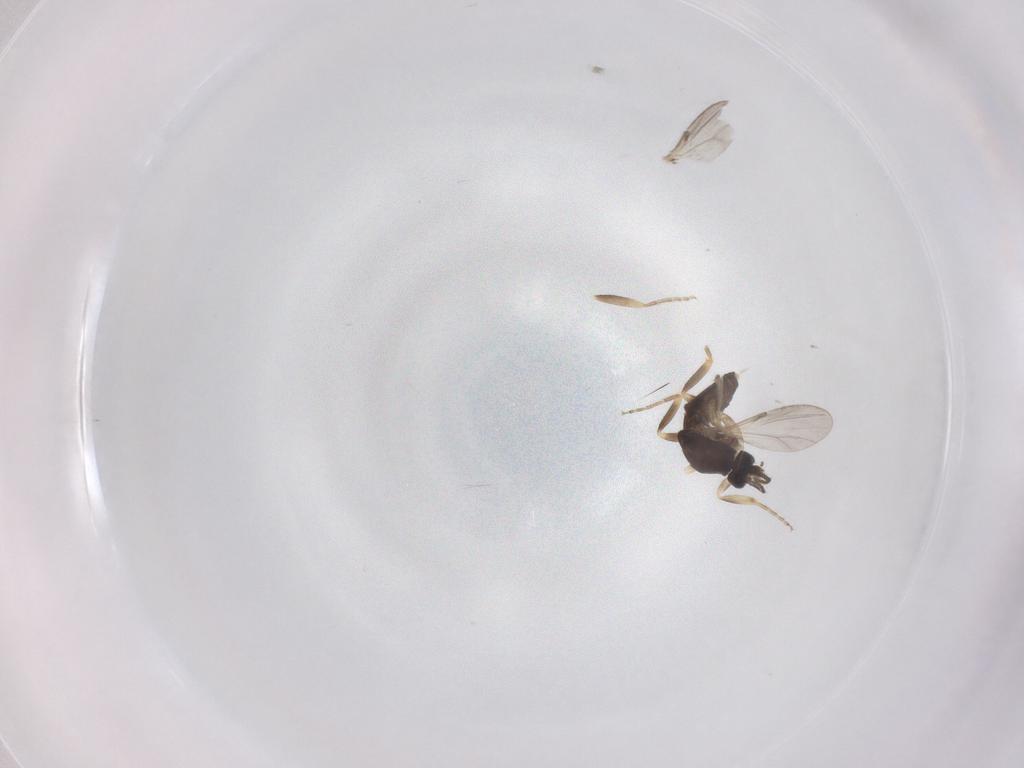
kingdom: Animalia
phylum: Arthropoda
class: Insecta
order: Diptera
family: Ceratopogonidae
